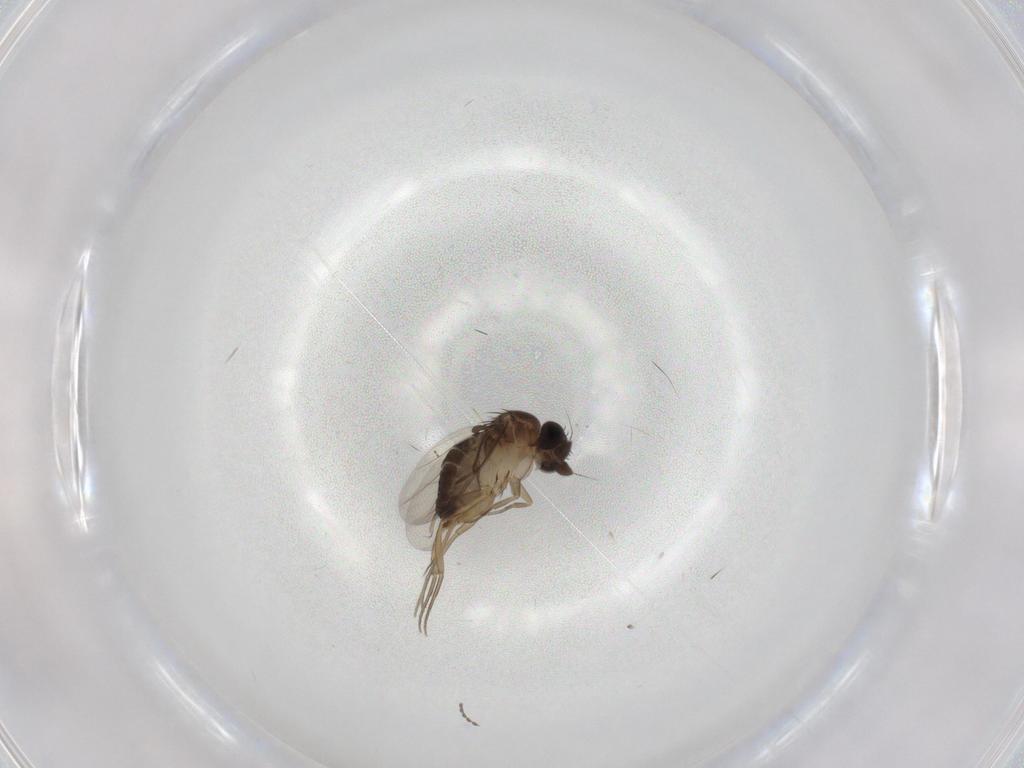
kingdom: Animalia
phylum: Arthropoda
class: Insecta
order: Diptera
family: Phoridae
